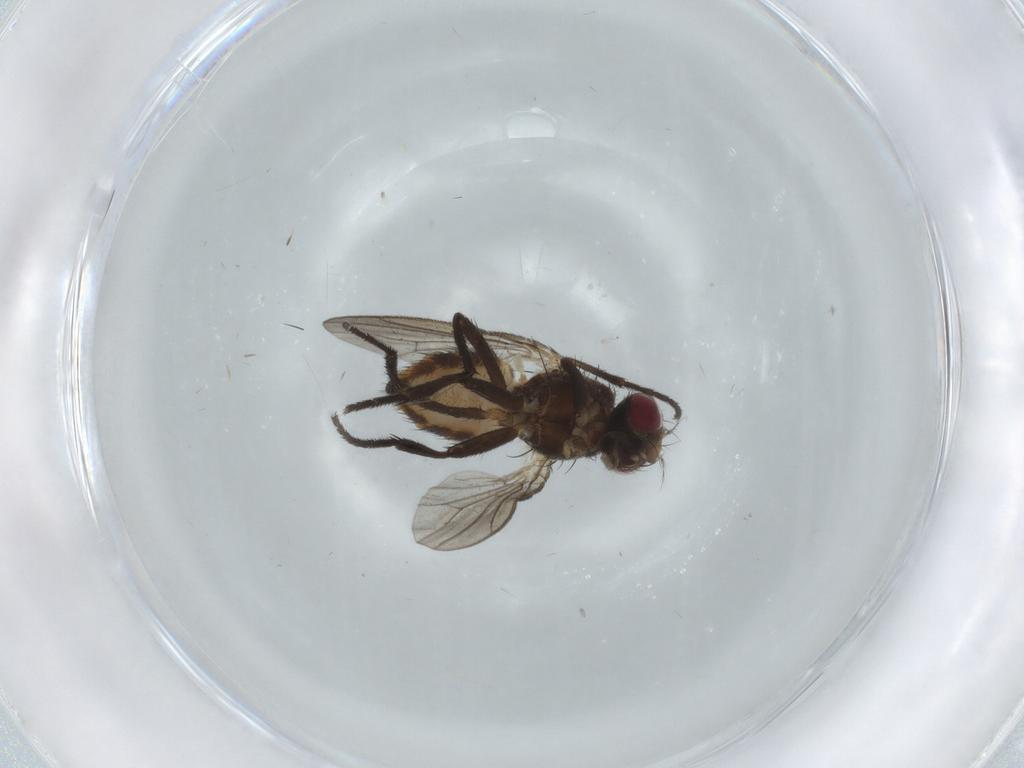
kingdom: Animalia
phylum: Arthropoda
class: Insecta
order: Diptera
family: Anthomyiidae
